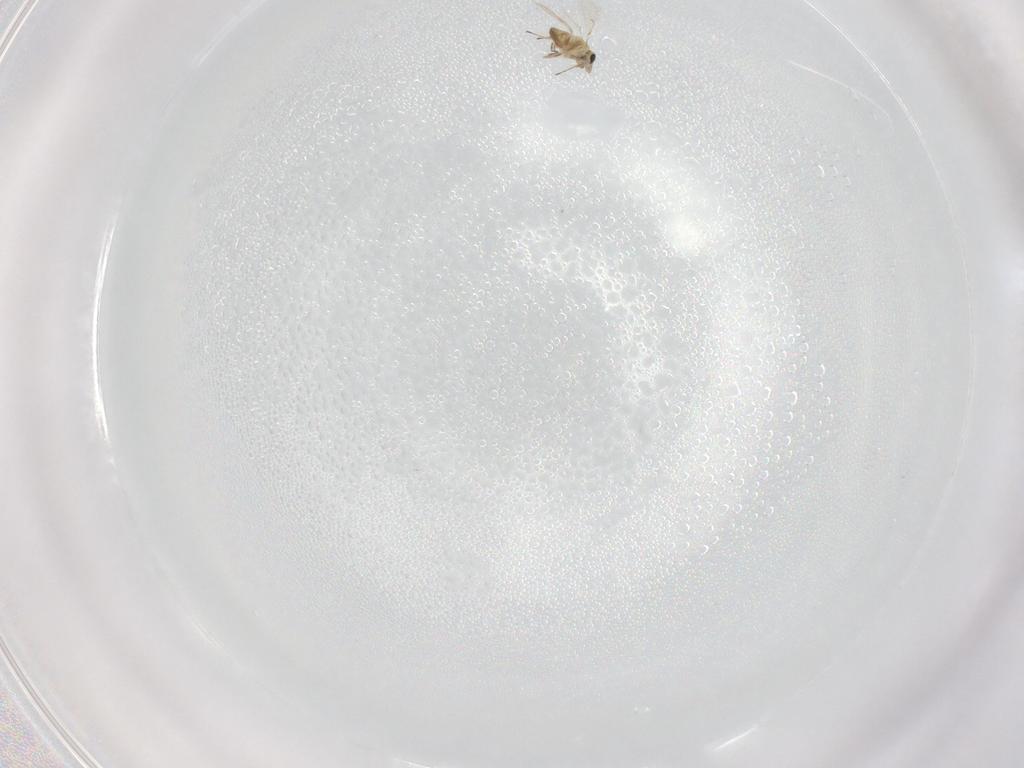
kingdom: Animalia
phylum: Arthropoda
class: Insecta
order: Hymenoptera
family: Trichogrammatidae
